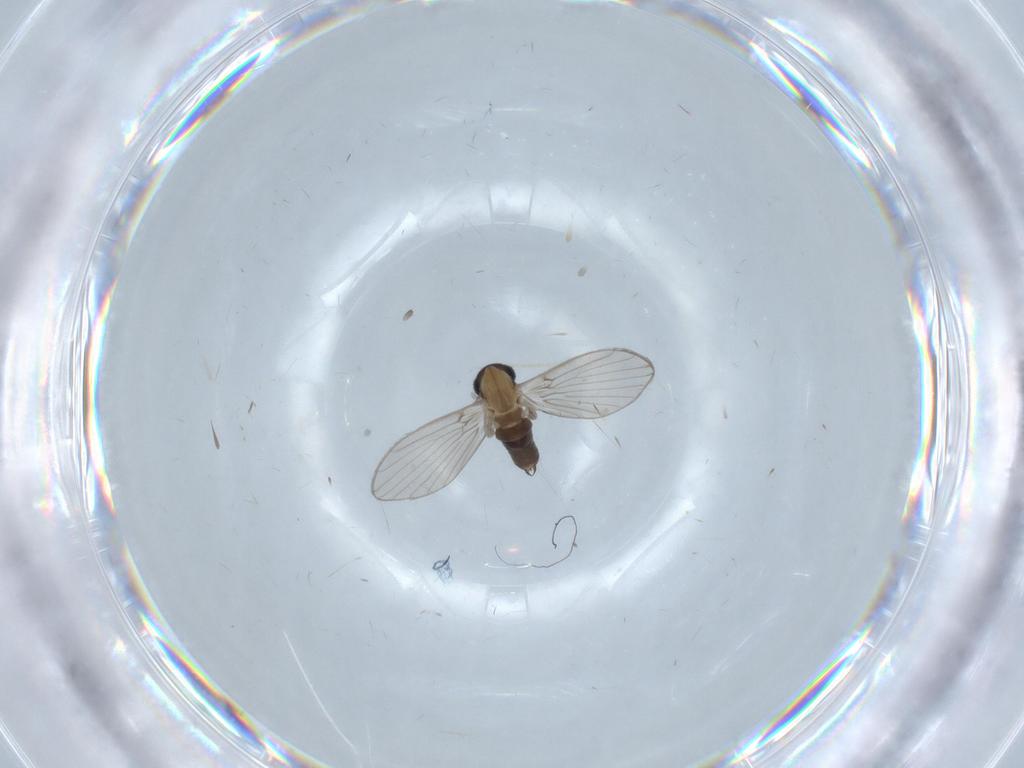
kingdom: Animalia
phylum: Arthropoda
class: Insecta
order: Diptera
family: Psychodidae
